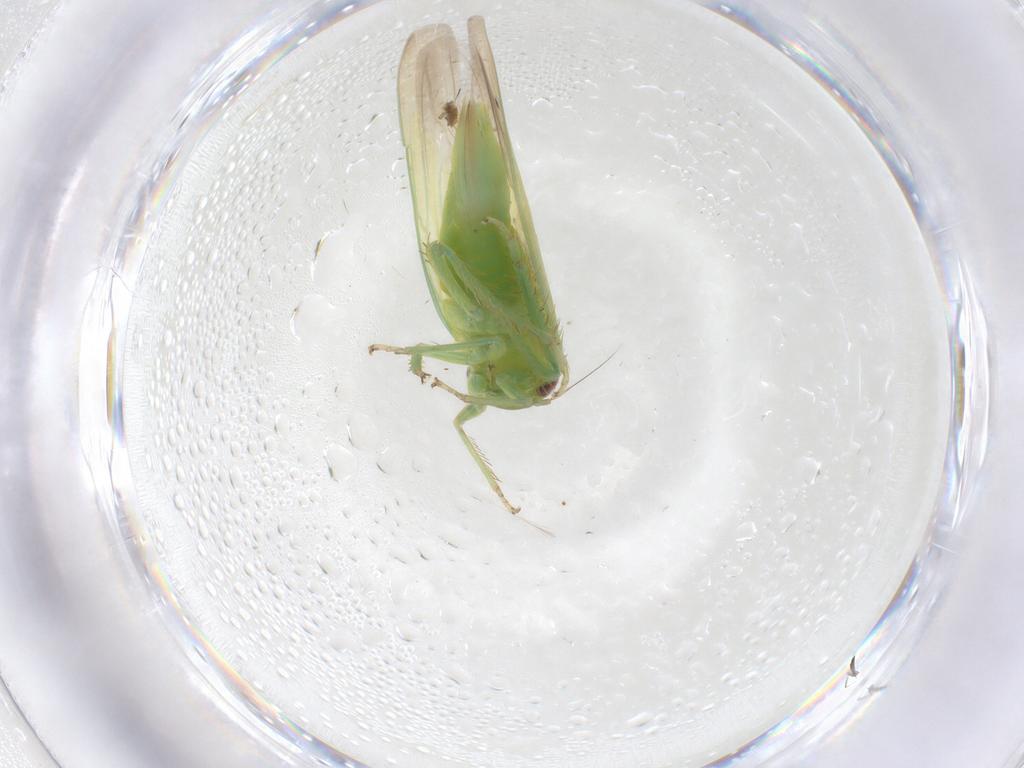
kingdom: Animalia
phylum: Arthropoda
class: Insecta
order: Hemiptera
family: Cicadellidae
